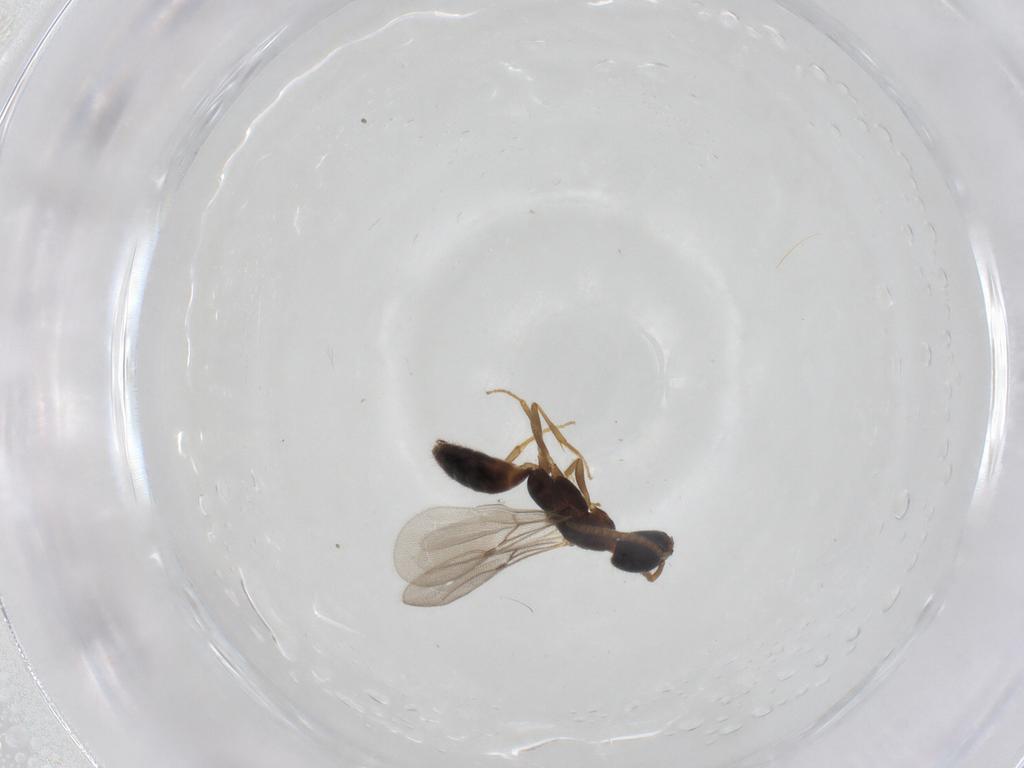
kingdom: Animalia
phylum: Arthropoda
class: Insecta
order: Hymenoptera
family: Bethylidae
